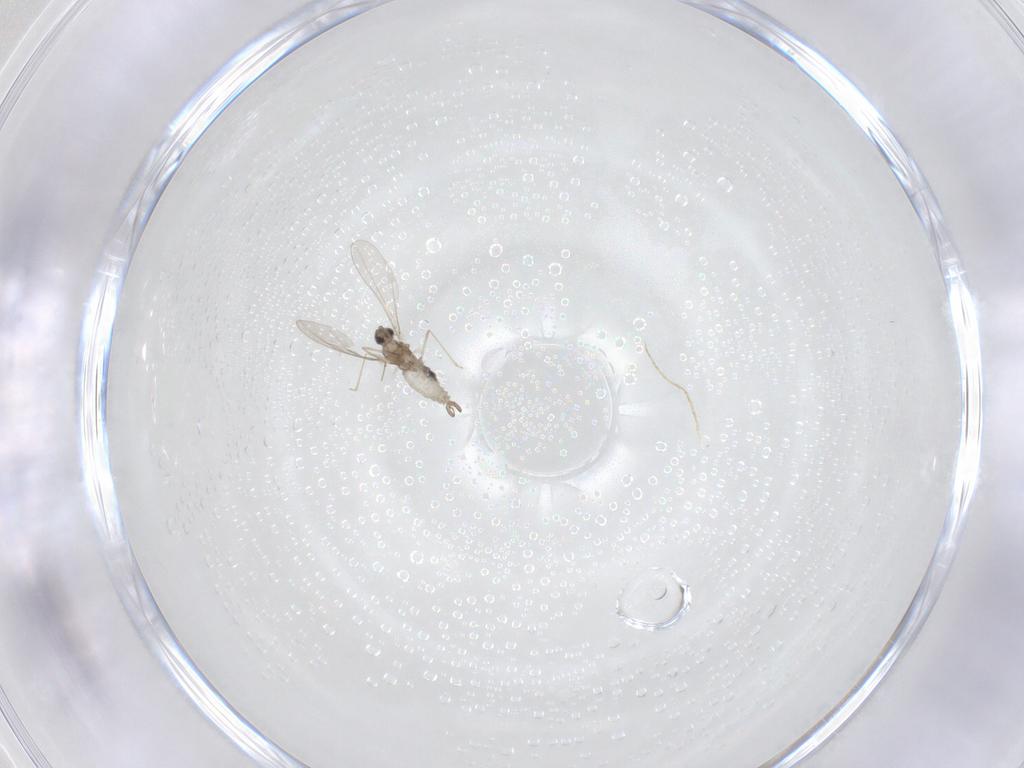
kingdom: Animalia
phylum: Arthropoda
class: Insecta
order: Diptera
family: Cecidomyiidae
